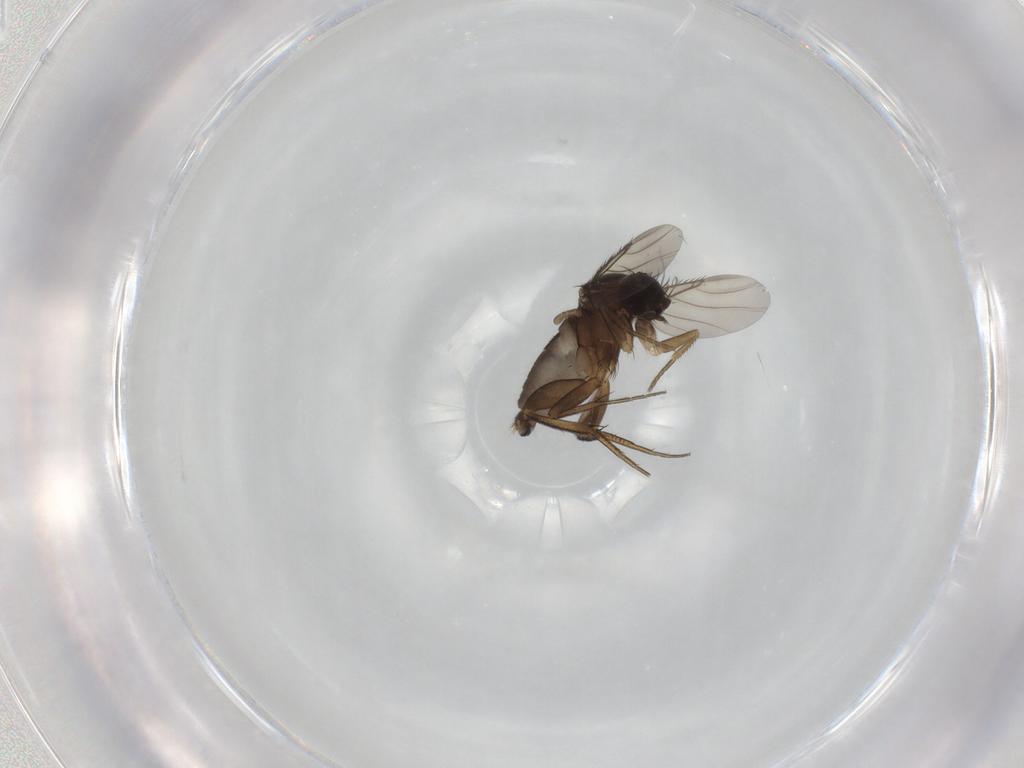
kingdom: Animalia
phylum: Arthropoda
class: Insecta
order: Diptera
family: Phoridae
